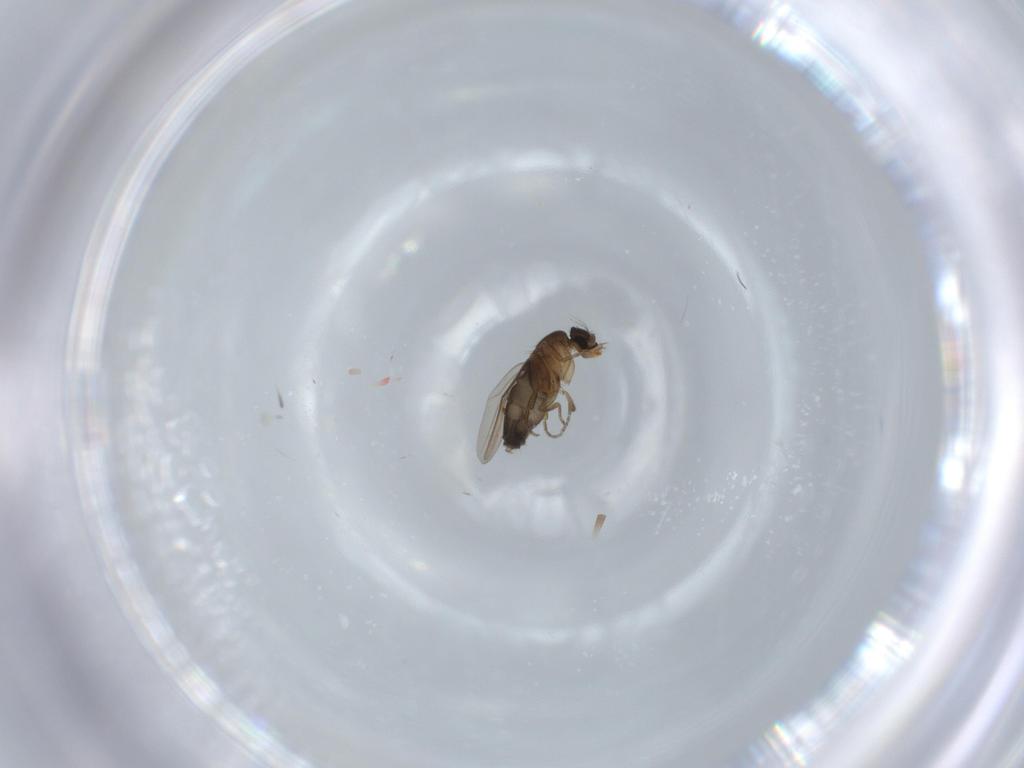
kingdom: Animalia
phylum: Arthropoda
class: Insecta
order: Diptera
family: Phoridae
